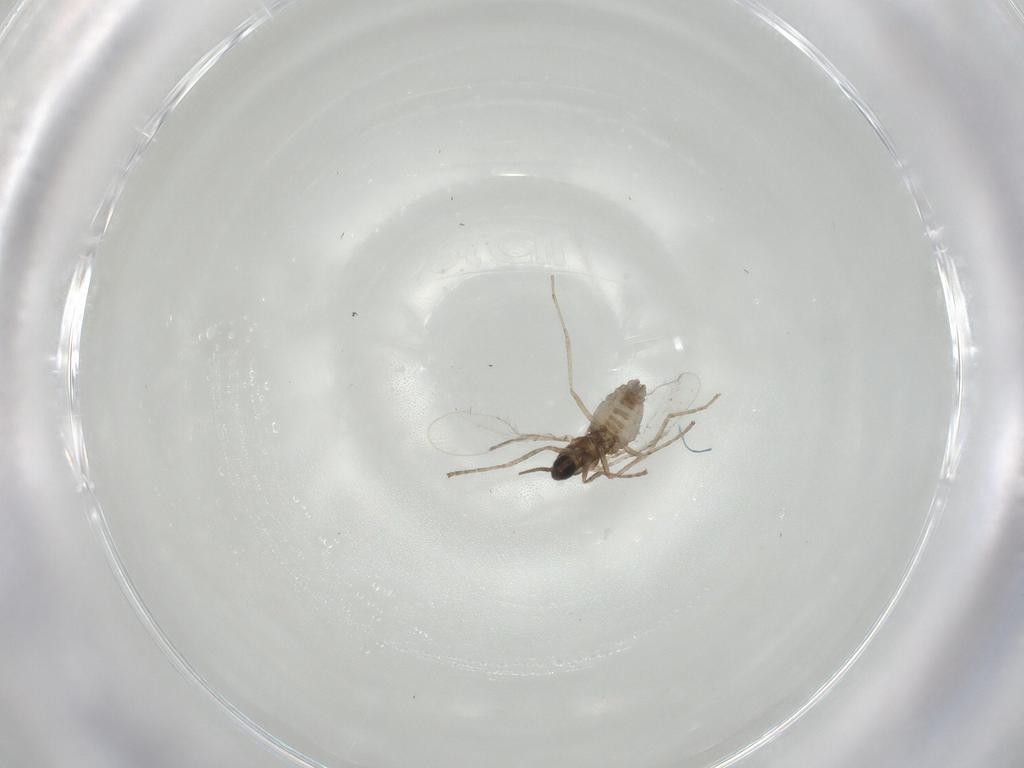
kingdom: Animalia
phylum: Arthropoda
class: Insecta
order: Diptera
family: Cecidomyiidae
